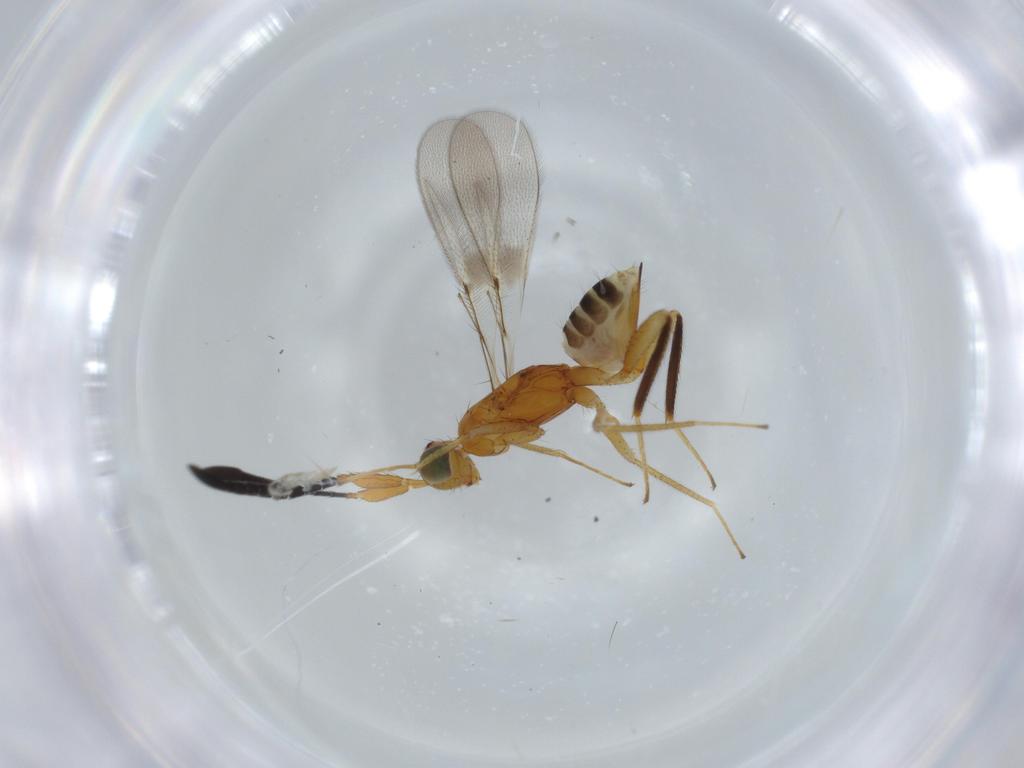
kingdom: Animalia
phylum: Arthropoda
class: Insecta
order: Hymenoptera
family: Mymaridae
